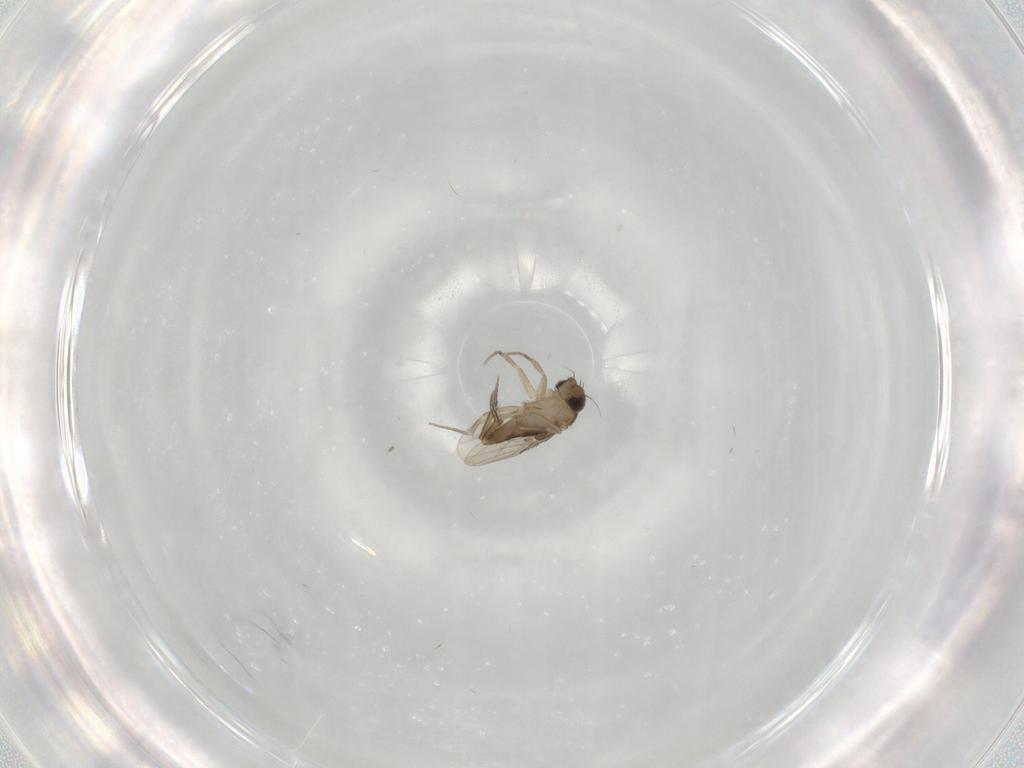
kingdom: Animalia
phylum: Arthropoda
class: Insecta
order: Diptera
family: Phoridae
